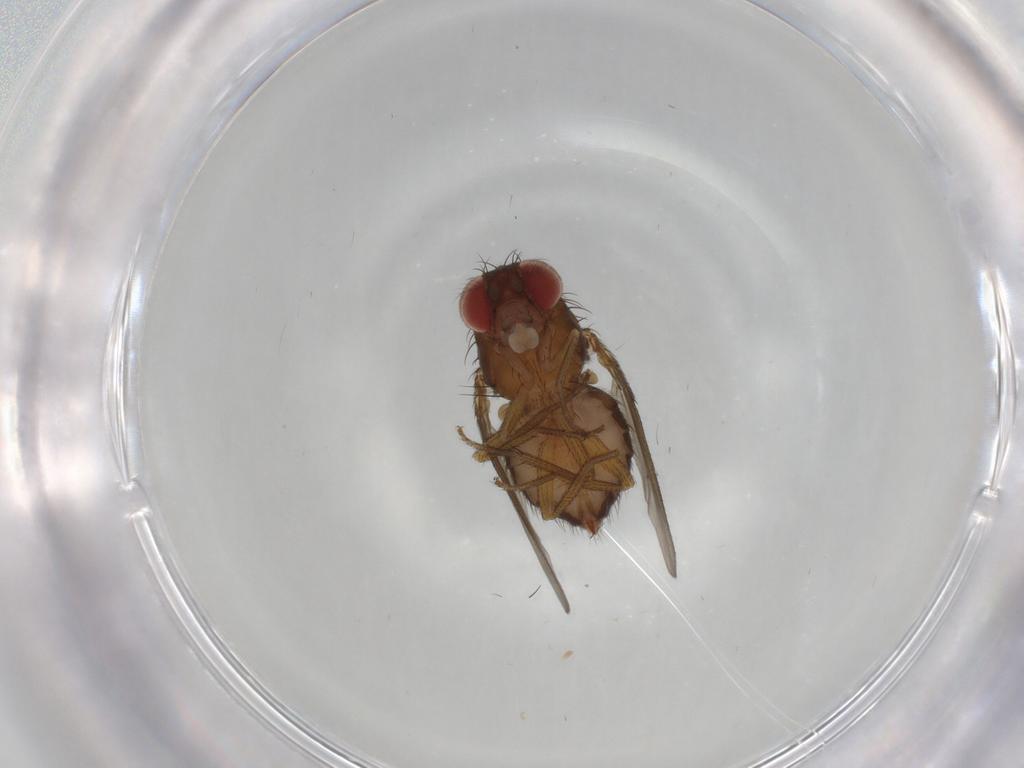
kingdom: Animalia
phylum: Arthropoda
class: Insecta
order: Diptera
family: Drosophilidae
